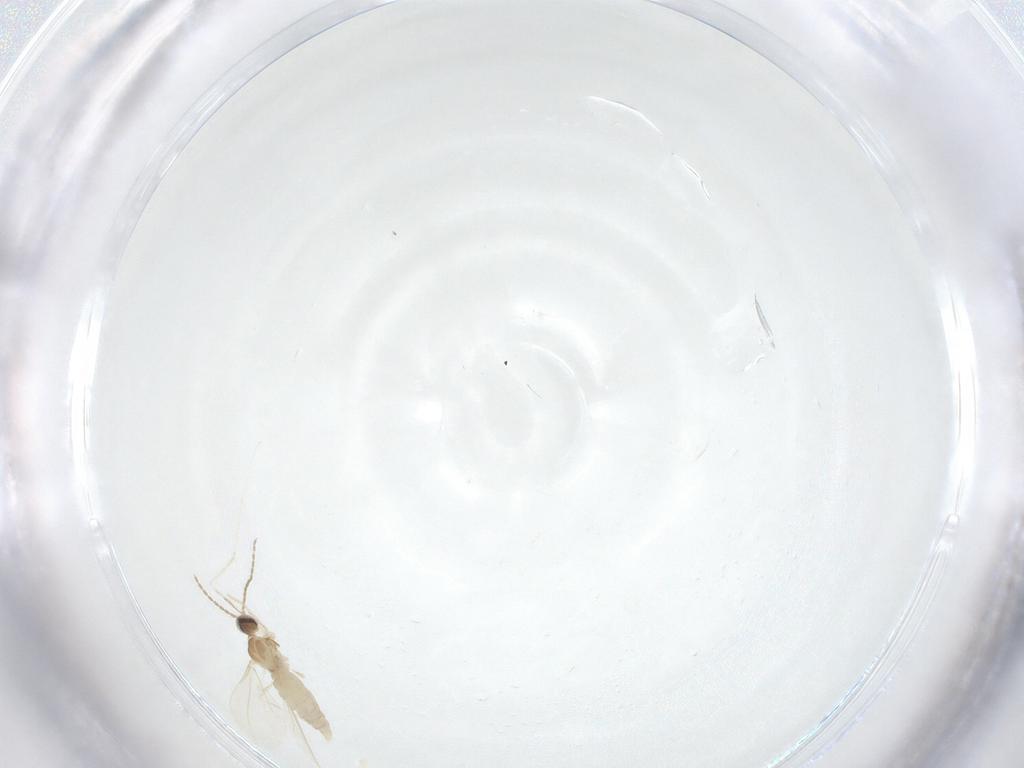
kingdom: Animalia
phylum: Arthropoda
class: Insecta
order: Diptera
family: Cecidomyiidae
